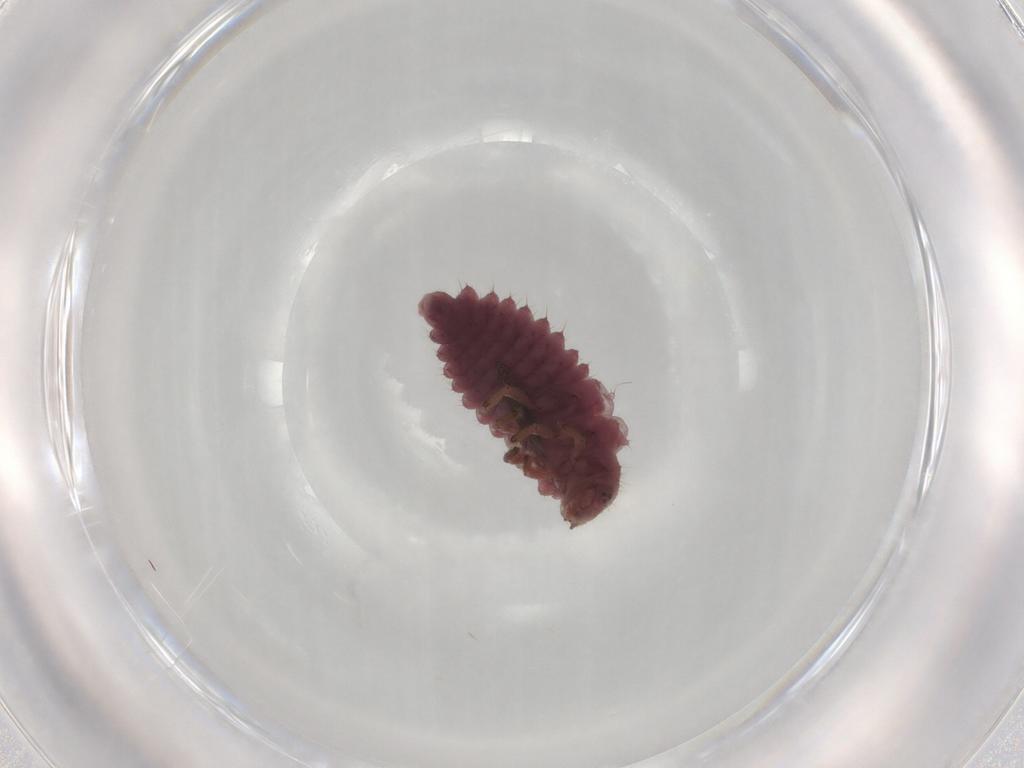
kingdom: Animalia
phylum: Arthropoda
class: Insecta
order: Coleoptera
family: Coccinellidae
